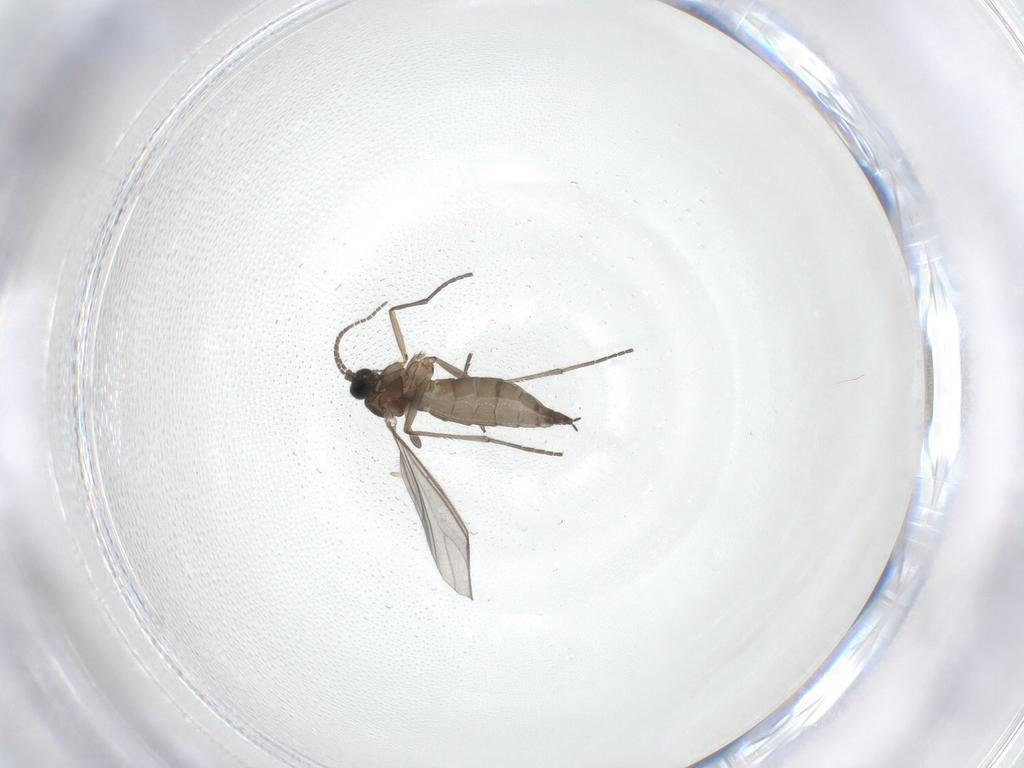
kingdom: Animalia
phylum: Arthropoda
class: Insecta
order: Diptera
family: Sciaridae
